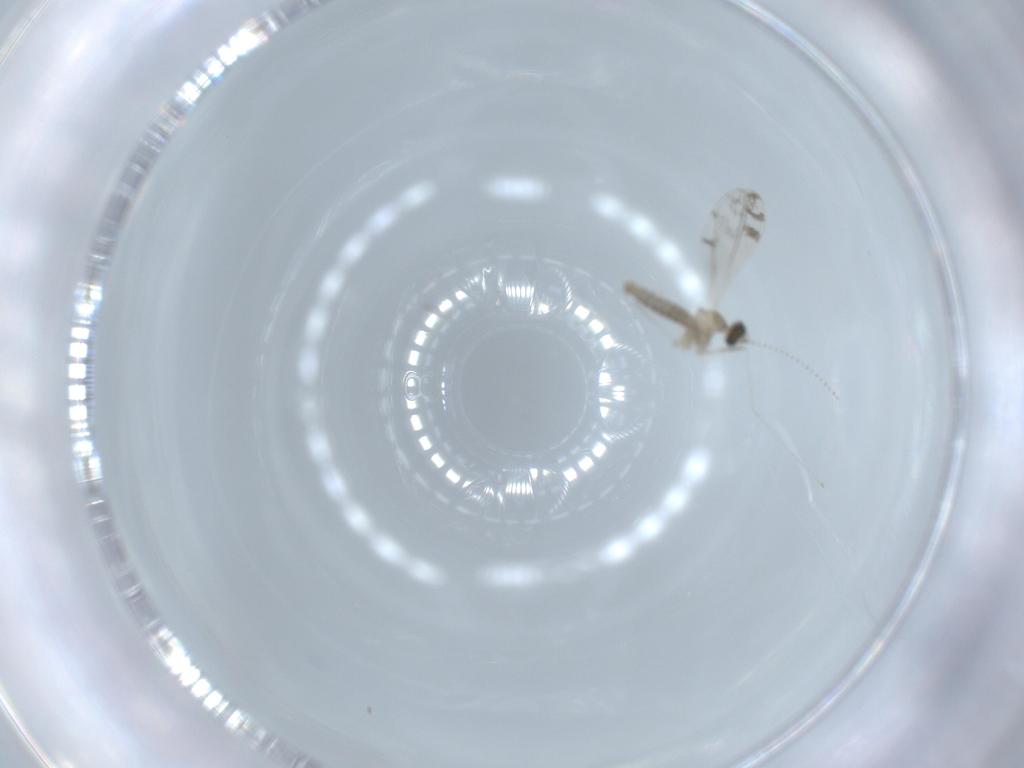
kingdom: Animalia
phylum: Arthropoda
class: Insecta
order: Diptera
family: Cecidomyiidae
